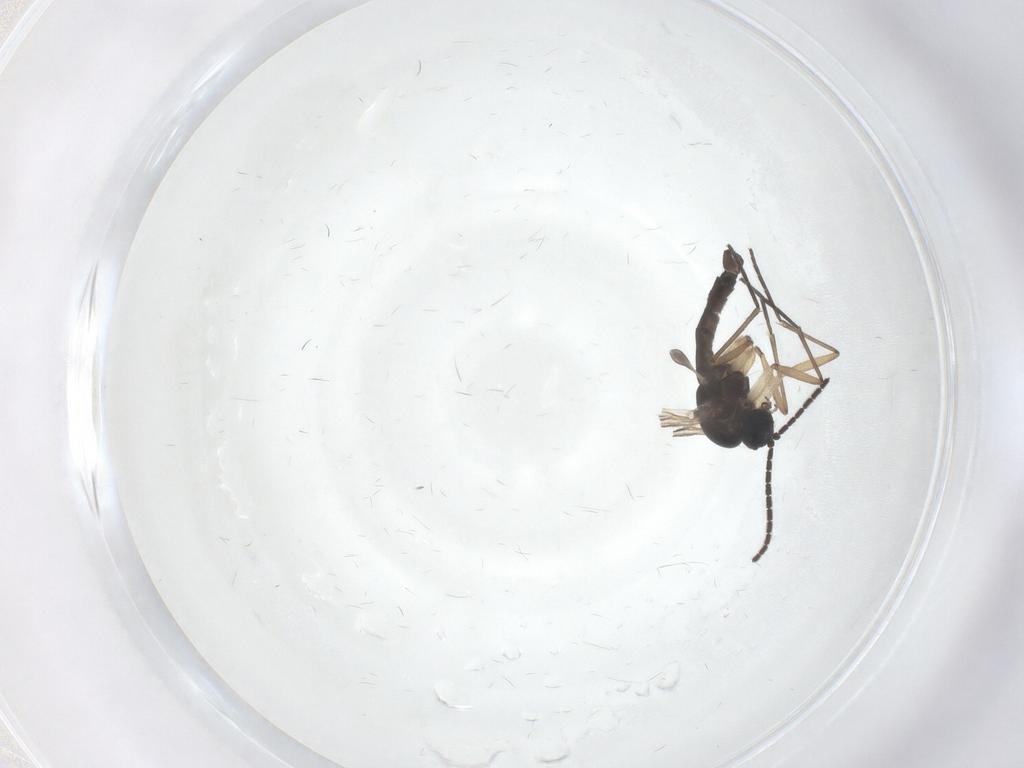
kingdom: Animalia
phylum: Arthropoda
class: Insecta
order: Diptera
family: Sciaridae
